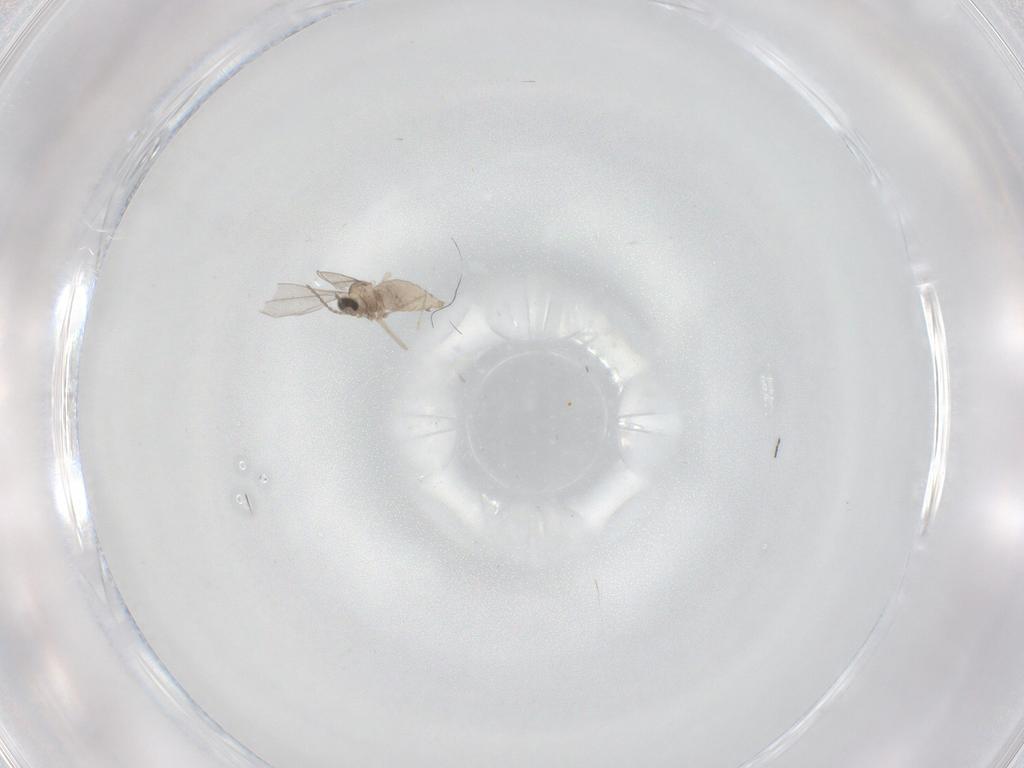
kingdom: Animalia
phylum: Arthropoda
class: Insecta
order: Diptera
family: Cecidomyiidae
